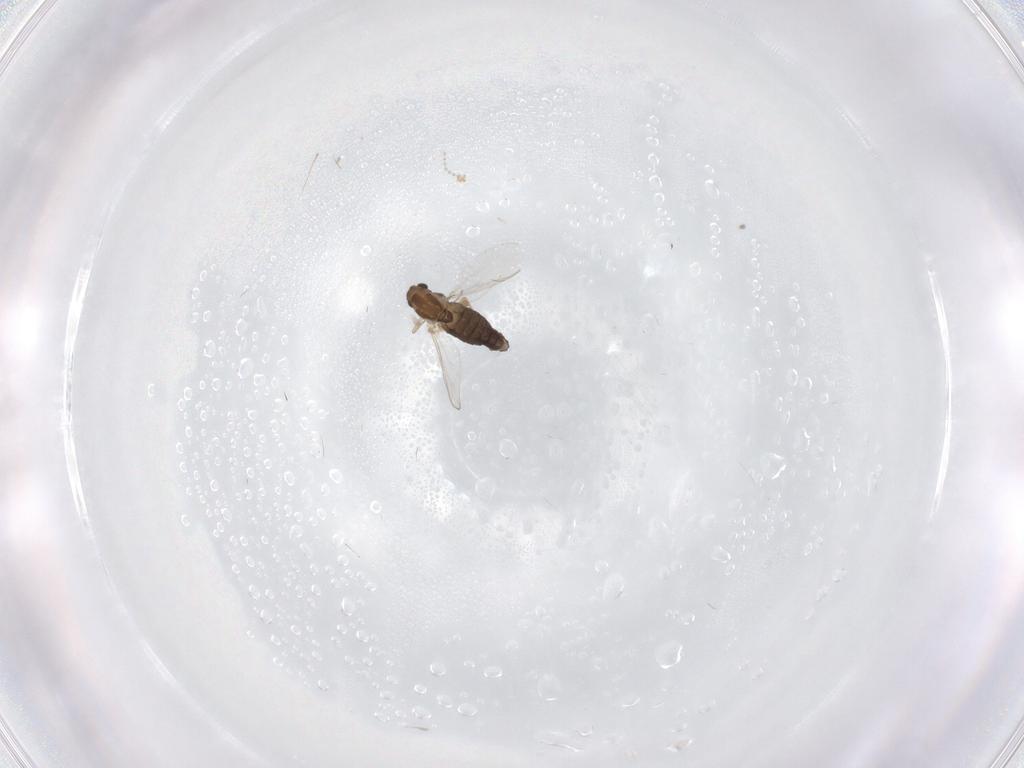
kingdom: Animalia
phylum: Arthropoda
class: Insecta
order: Diptera
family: Chironomidae
